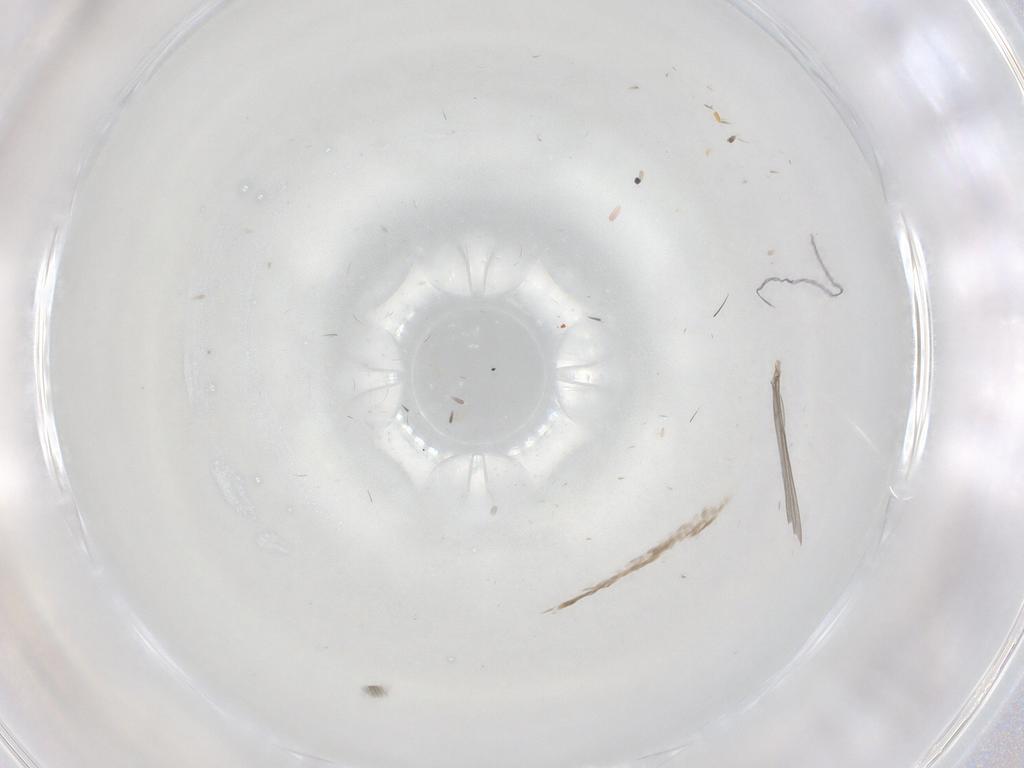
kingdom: Animalia
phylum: Arthropoda
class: Insecta
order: Diptera
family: Cecidomyiidae
